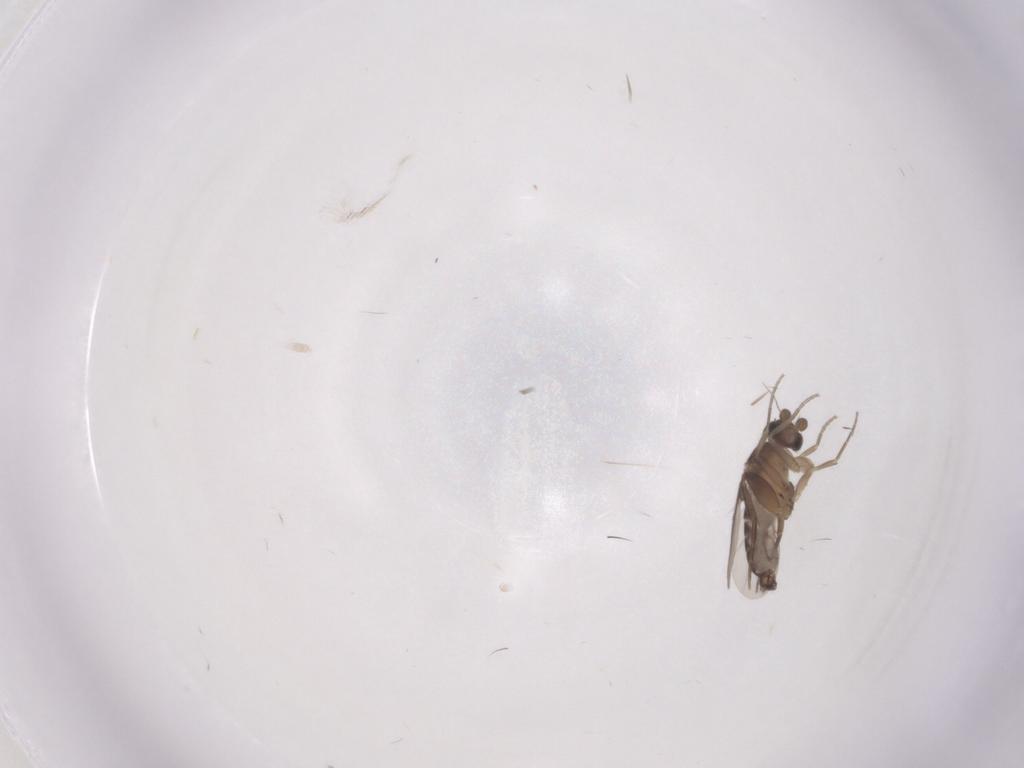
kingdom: Animalia
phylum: Arthropoda
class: Insecta
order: Diptera
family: Phoridae
